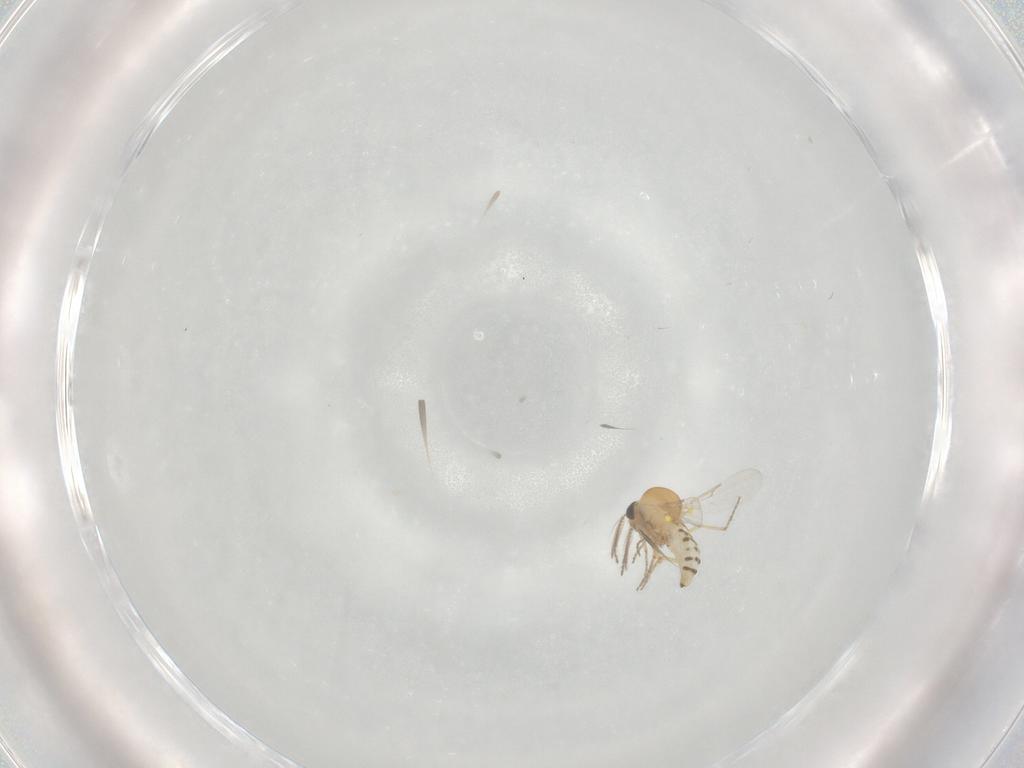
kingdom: Animalia
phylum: Arthropoda
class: Insecta
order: Diptera
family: Ceratopogonidae
